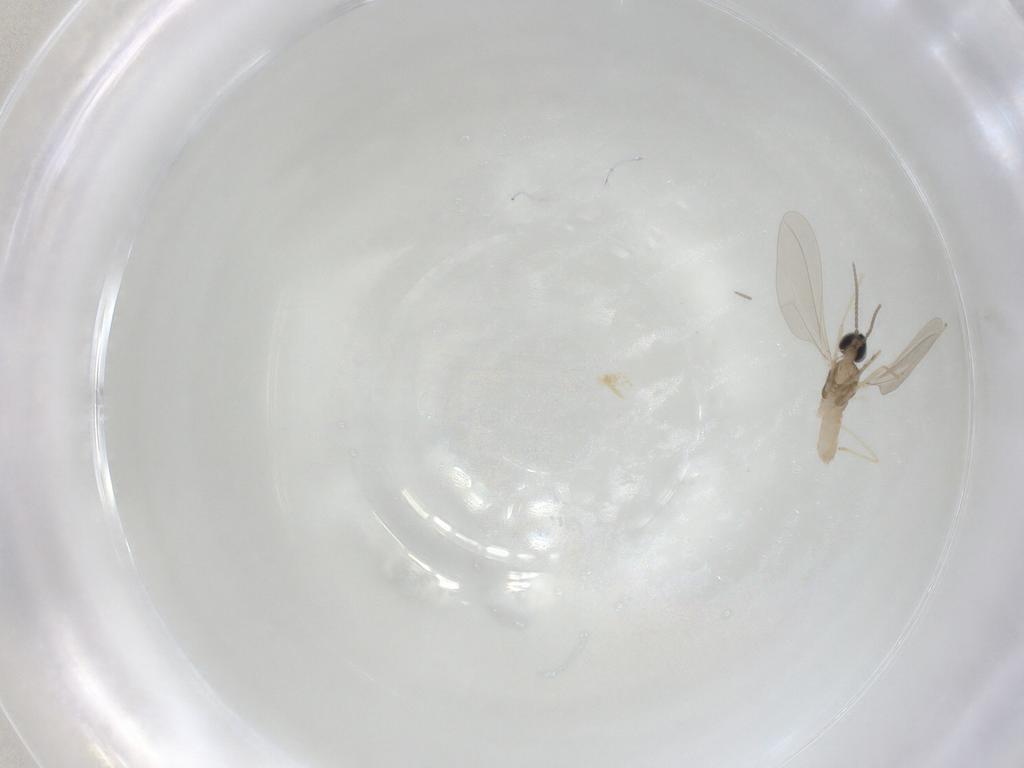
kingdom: Animalia
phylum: Arthropoda
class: Insecta
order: Diptera
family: Cecidomyiidae
